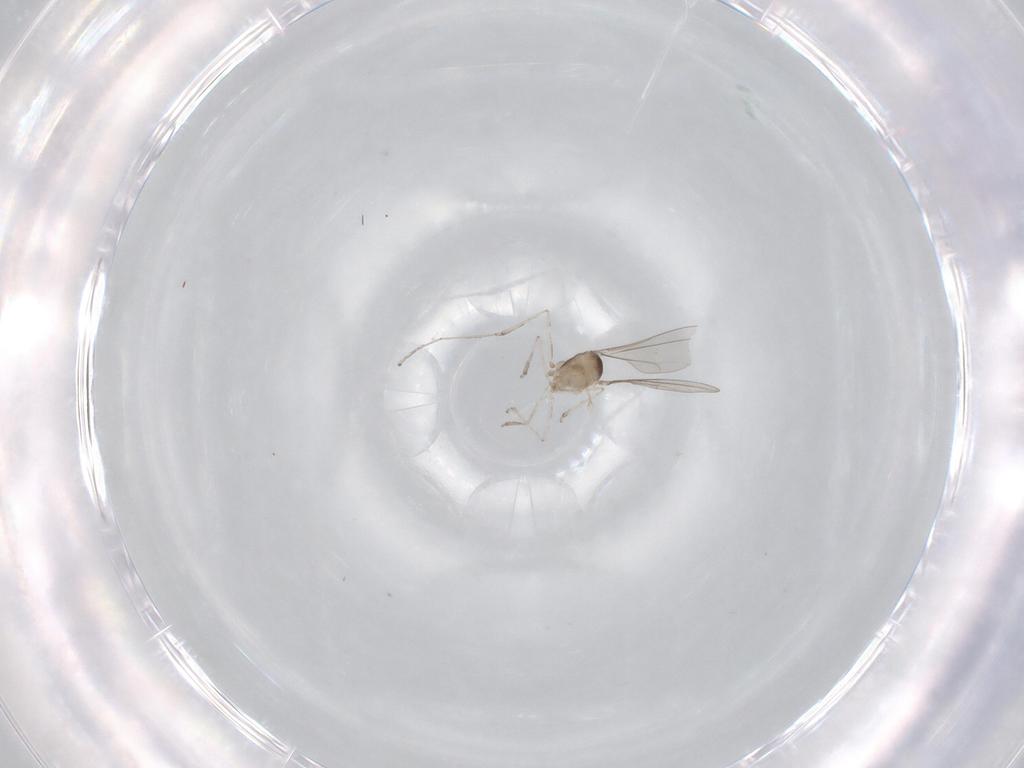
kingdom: Animalia
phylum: Arthropoda
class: Insecta
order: Diptera
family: Cecidomyiidae
